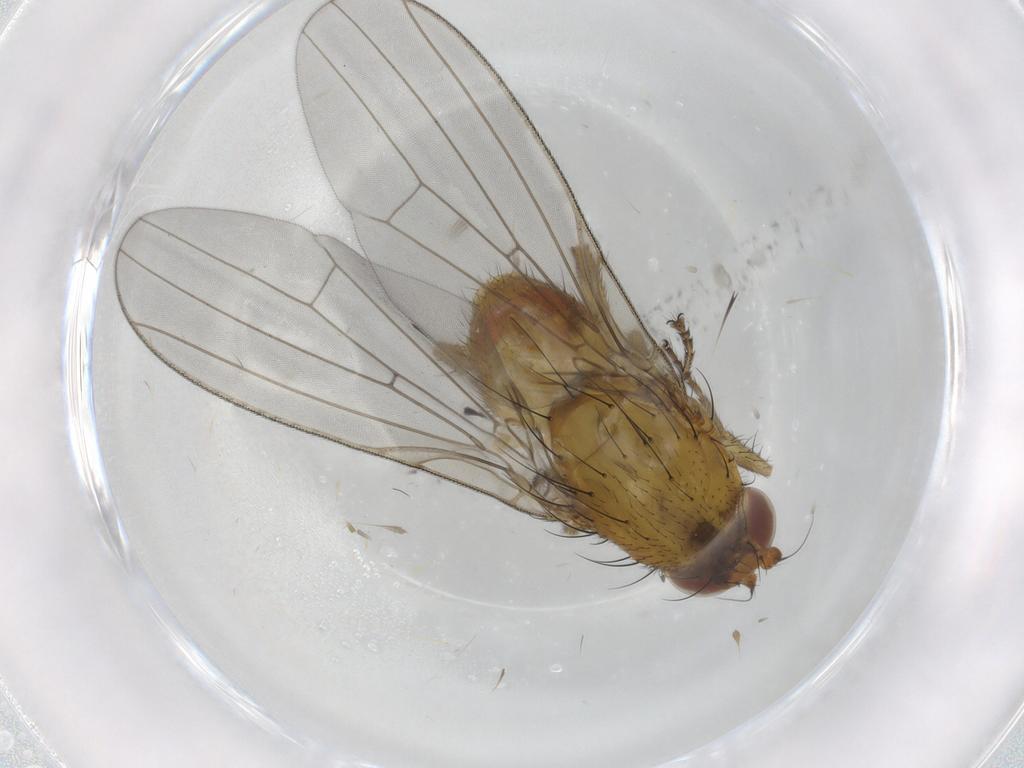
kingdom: Animalia
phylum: Arthropoda
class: Insecta
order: Diptera
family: Lauxaniidae
